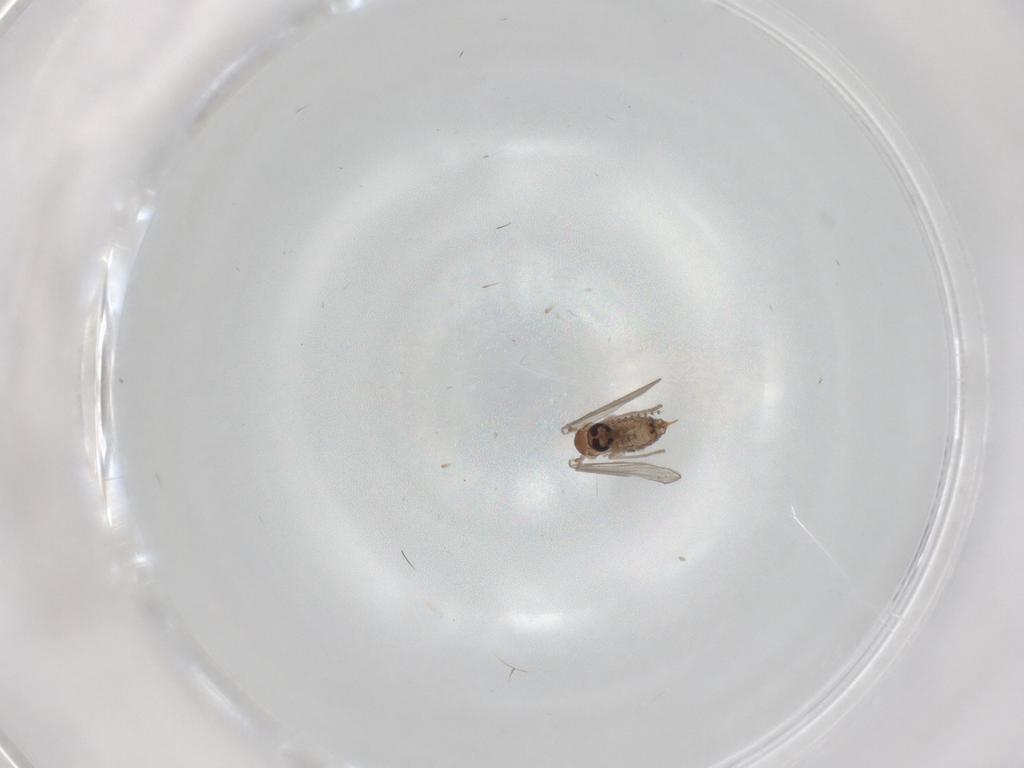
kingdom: Animalia
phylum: Arthropoda
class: Insecta
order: Diptera
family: Psychodidae
